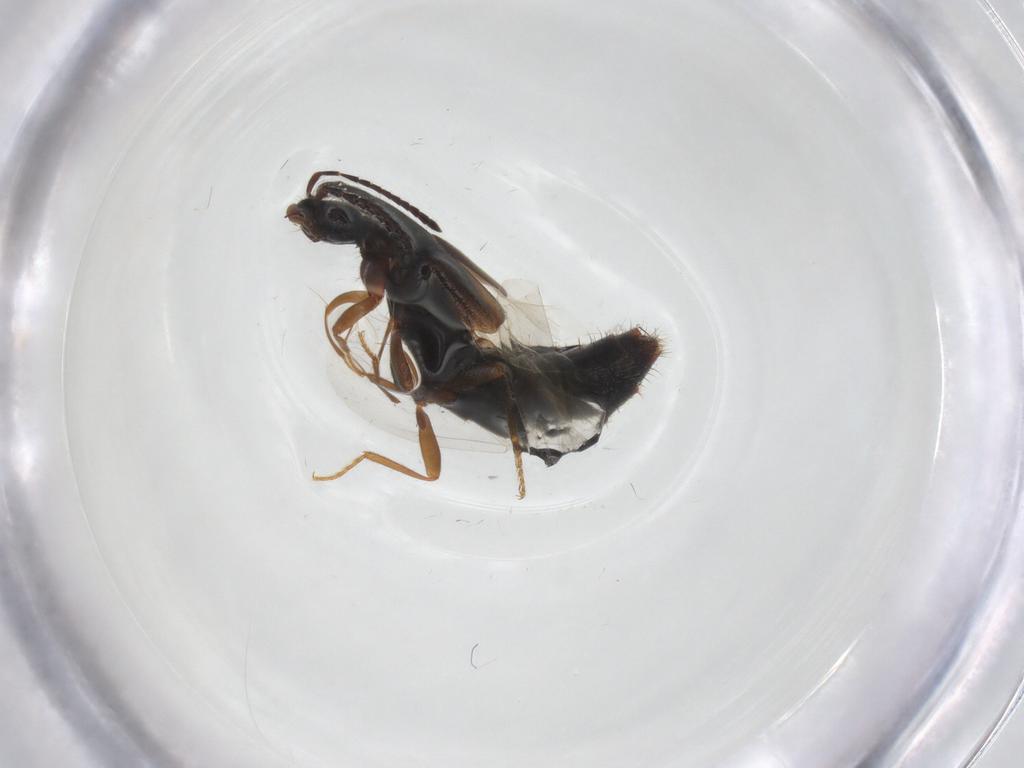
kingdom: Animalia
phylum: Arthropoda
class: Insecta
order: Coleoptera
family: Staphylinidae
